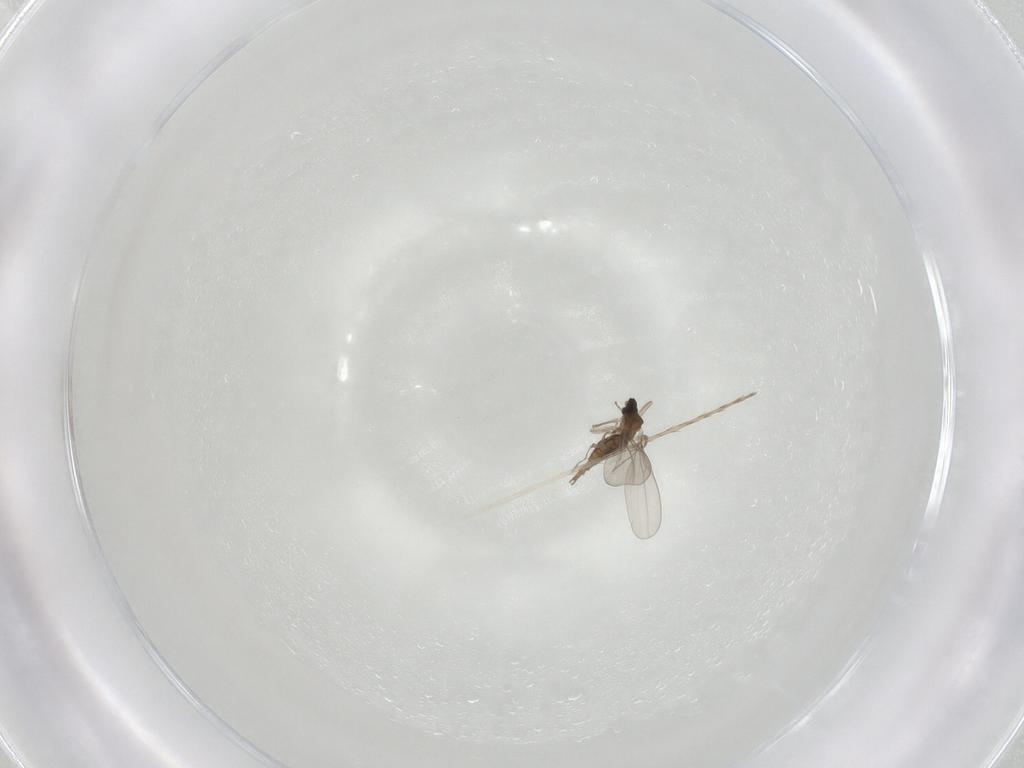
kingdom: Animalia
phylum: Arthropoda
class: Insecta
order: Diptera
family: Cecidomyiidae
